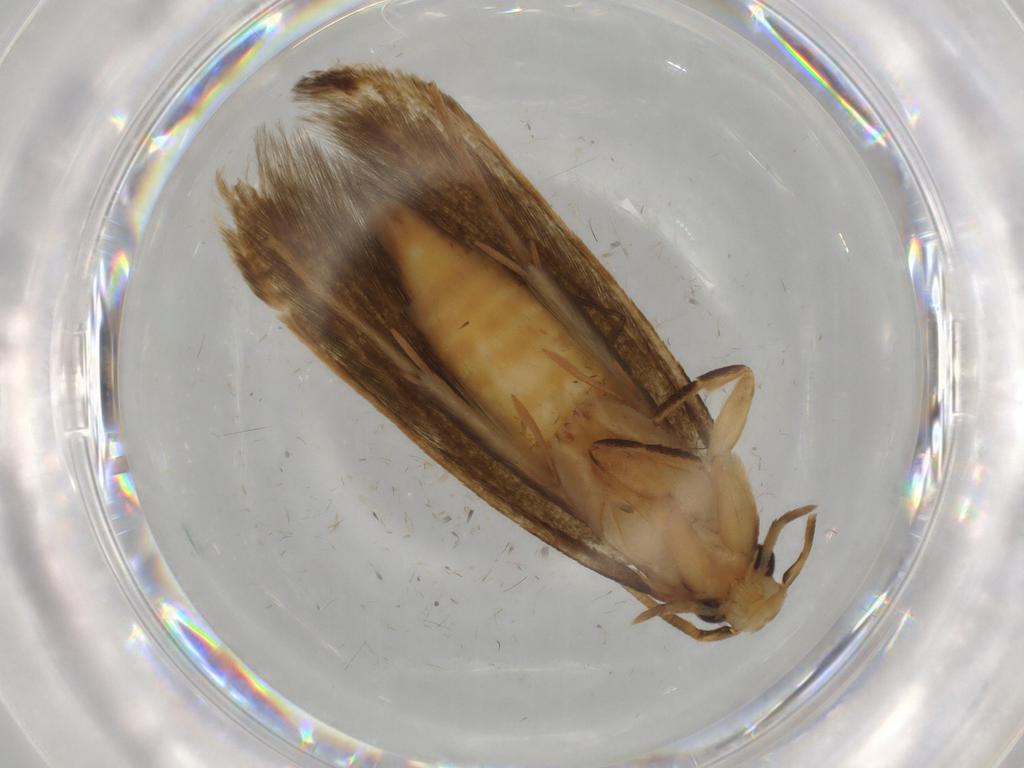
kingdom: Animalia
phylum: Arthropoda
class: Insecta
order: Lepidoptera
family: Tineidae
